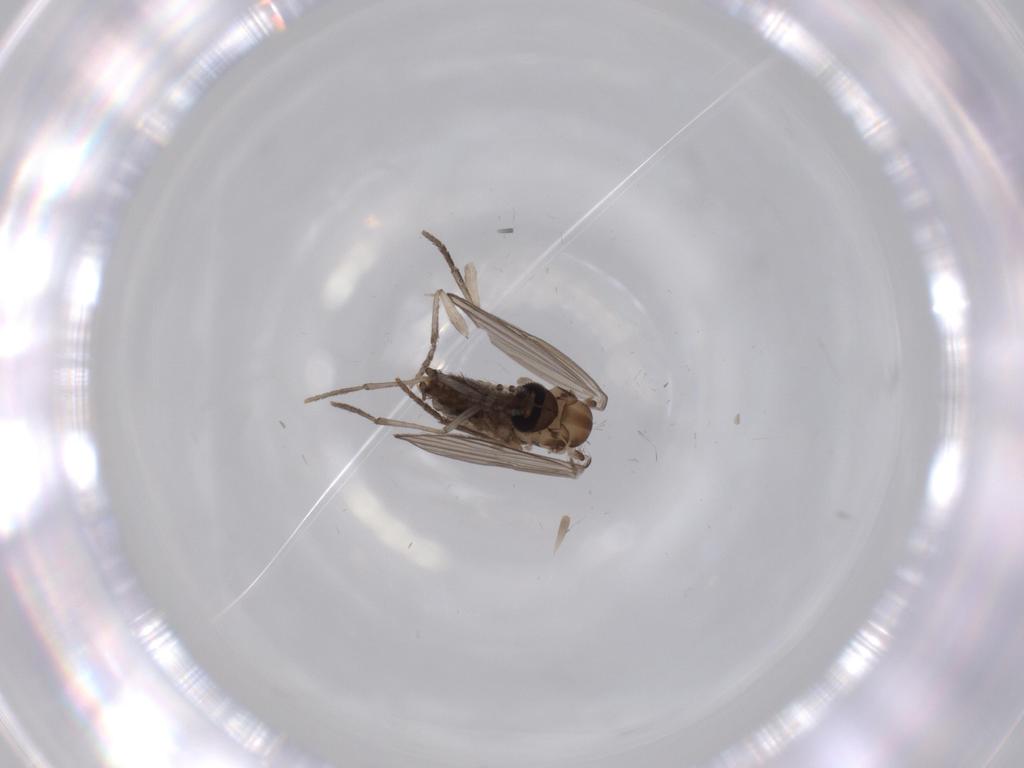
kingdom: Animalia
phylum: Arthropoda
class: Insecta
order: Diptera
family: Psychodidae
